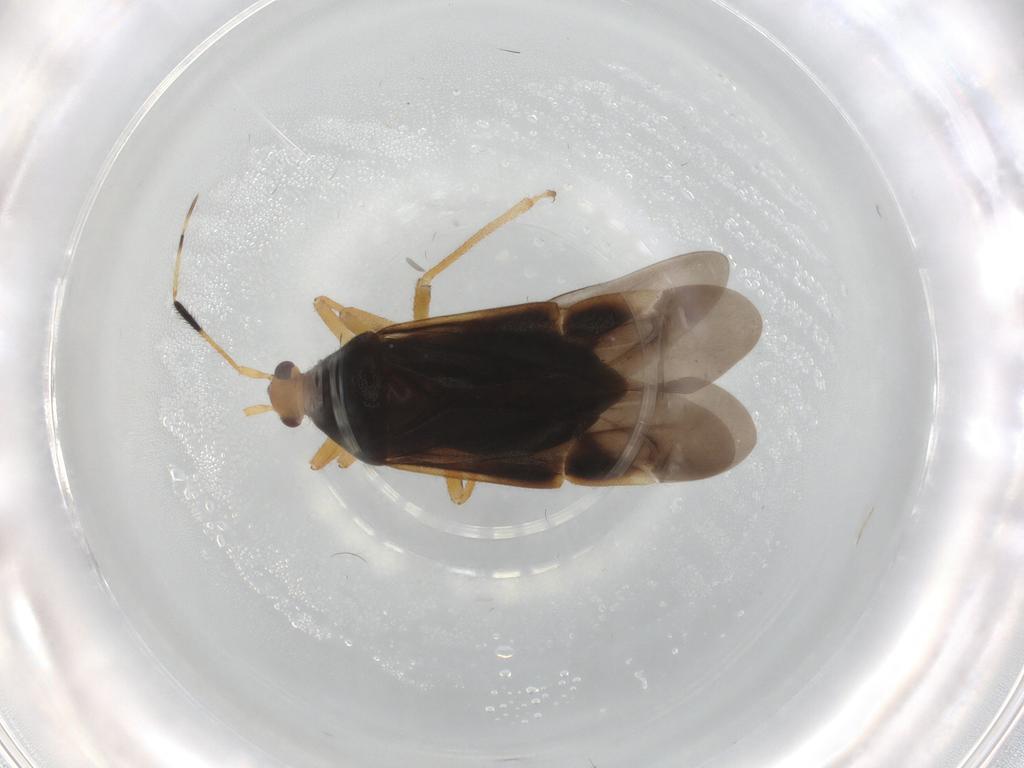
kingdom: Animalia
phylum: Arthropoda
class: Insecta
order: Hemiptera
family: Miridae
